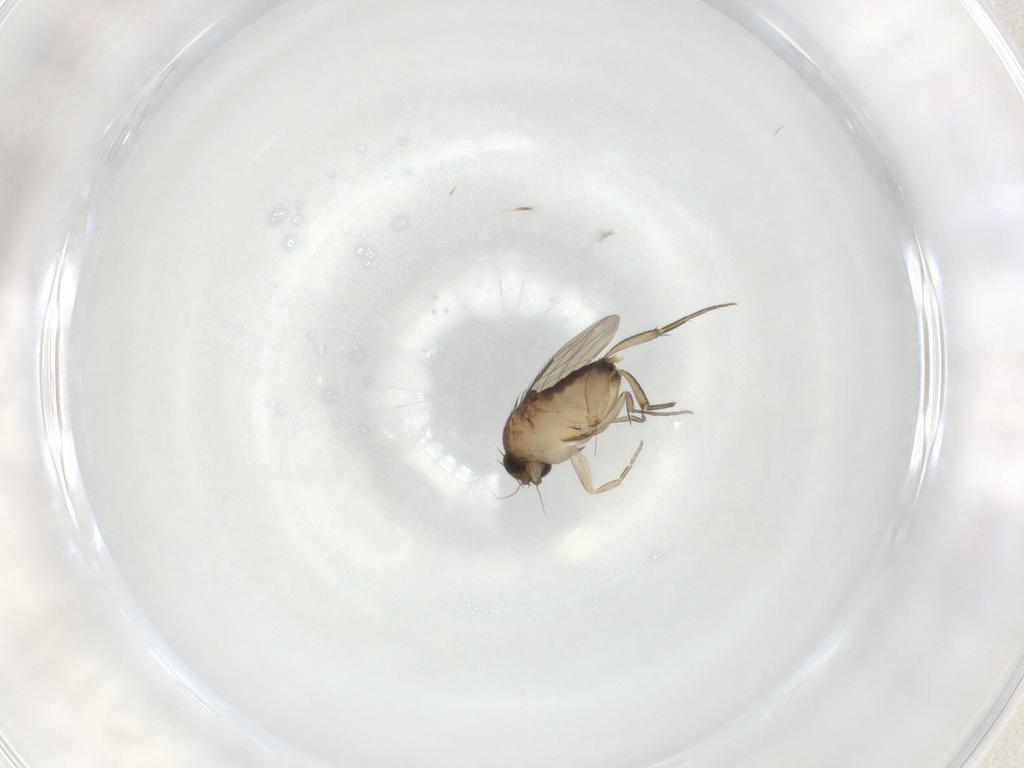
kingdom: Animalia
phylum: Arthropoda
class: Insecta
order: Diptera
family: Phoridae
